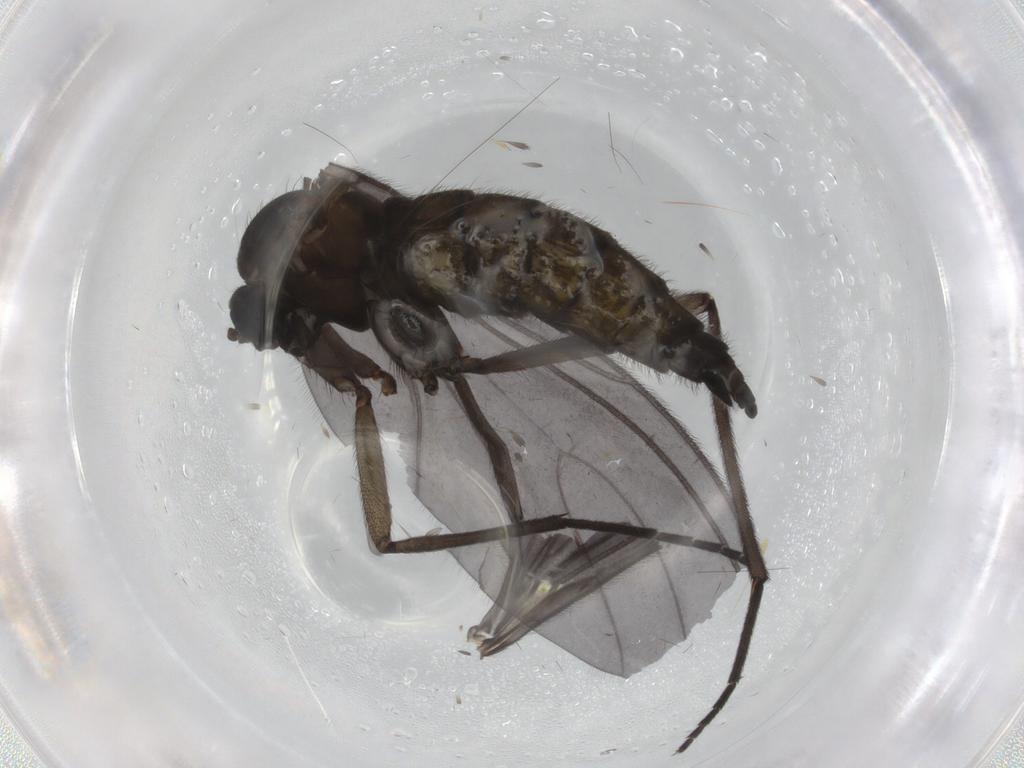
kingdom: Animalia
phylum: Arthropoda
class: Insecta
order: Diptera
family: Sciaridae
